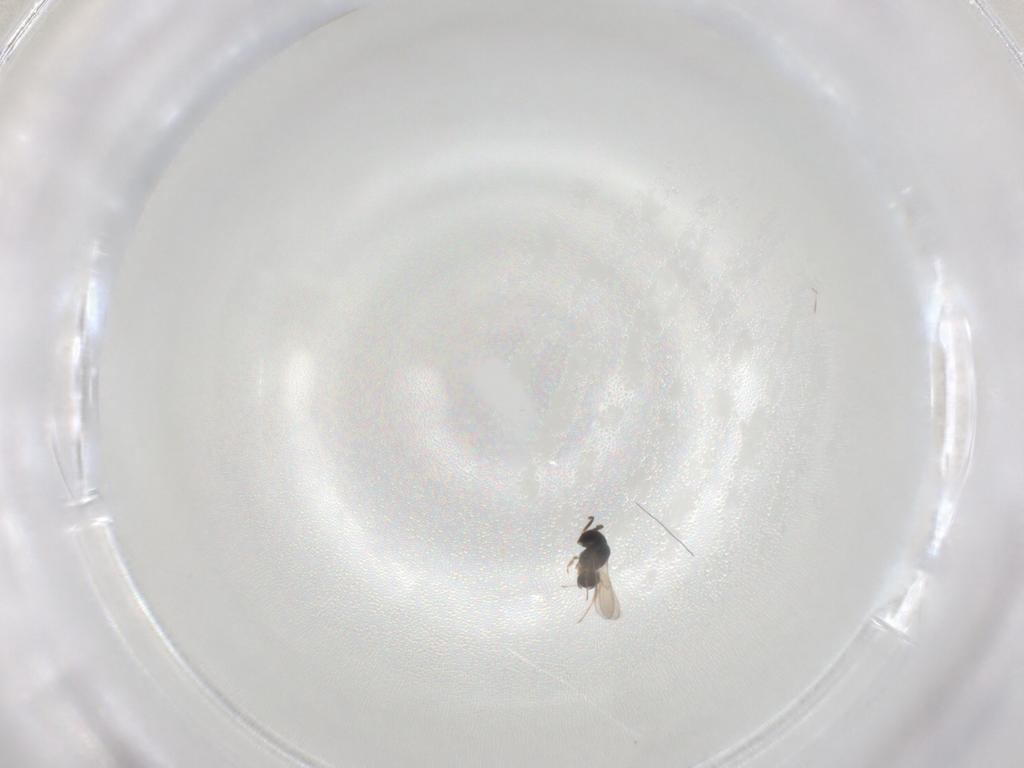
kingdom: Animalia
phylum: Arthropoda
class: Insecta
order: Hymenoptera
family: Scelionidae
